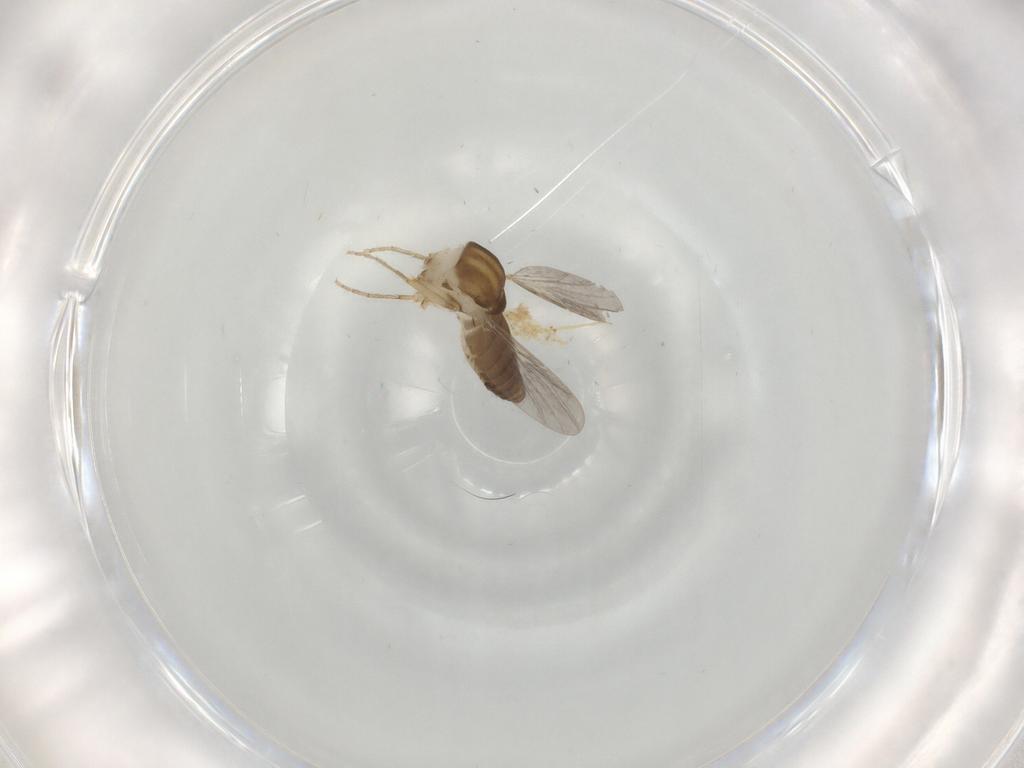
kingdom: Animalia
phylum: Arthropoda
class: Insecta
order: Diptera
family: Ceratopogonidae
